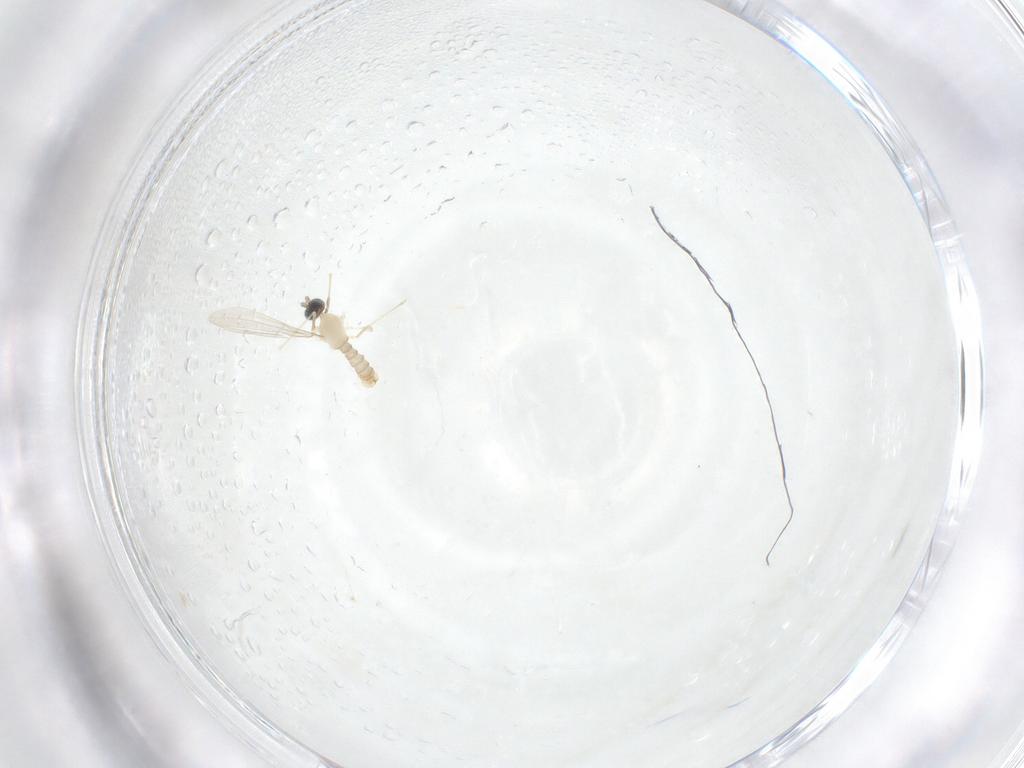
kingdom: Animalia
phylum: Arthropoda
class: Insecta
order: Diptera
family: Cecidomyiidae
